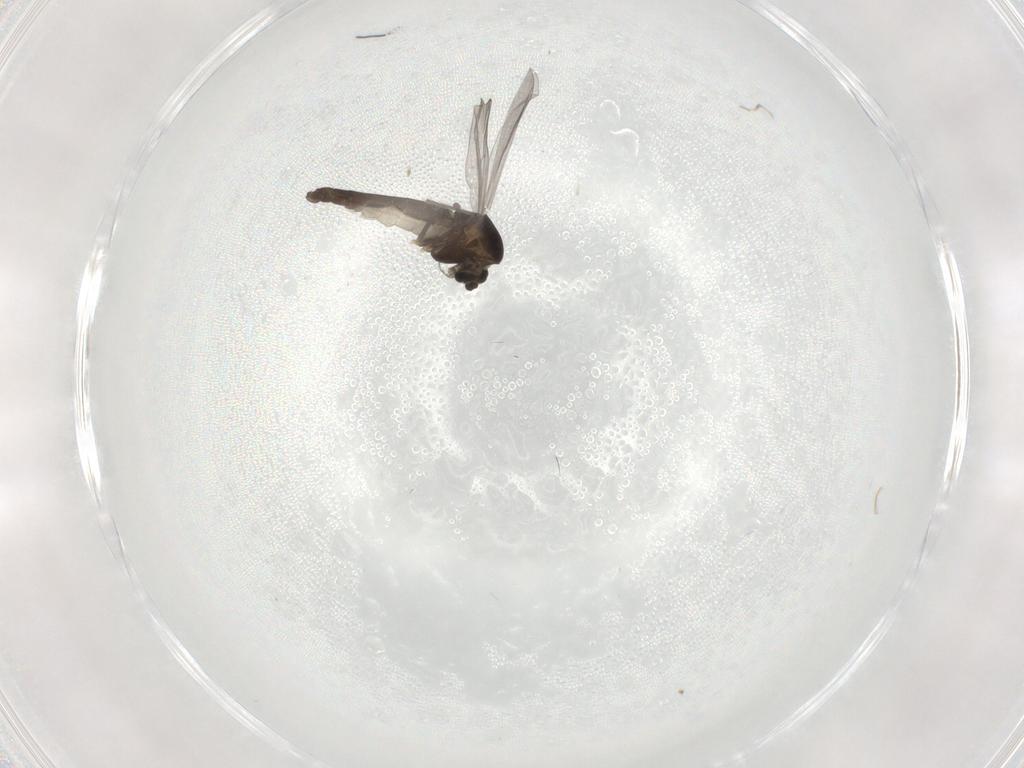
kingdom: Animalia
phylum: Arthropoda
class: Insecta
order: Diptera
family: Chironomidae
